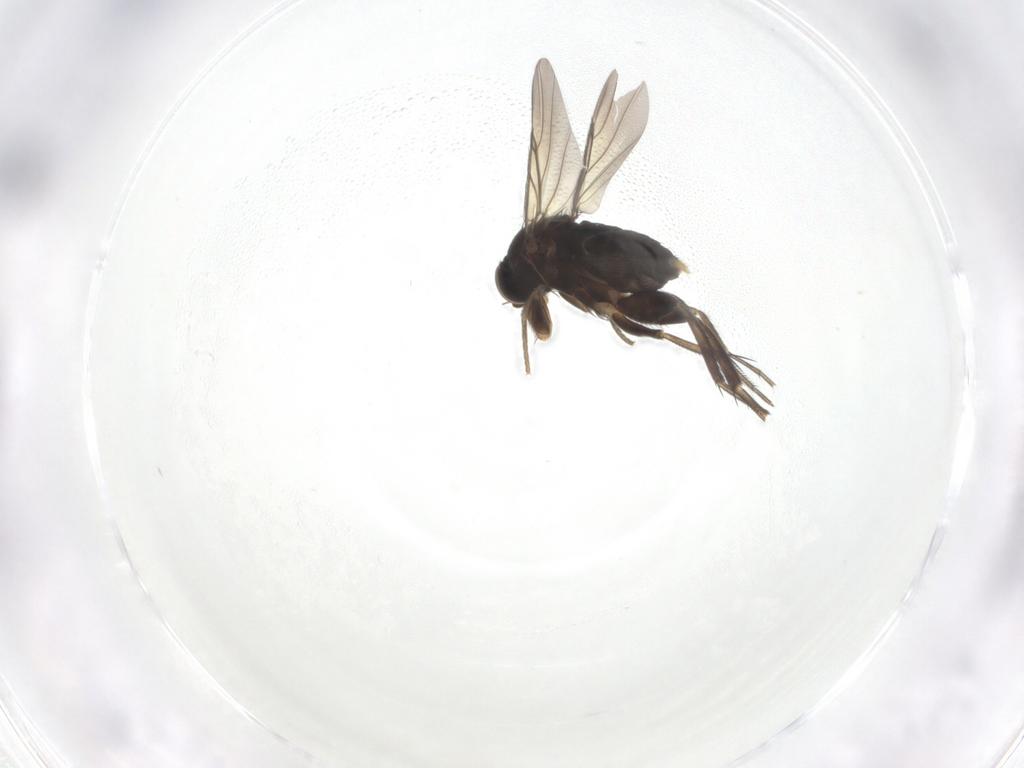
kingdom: Animalia
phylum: Arthropoda
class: Insecta
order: Diptera
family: Phoridae
